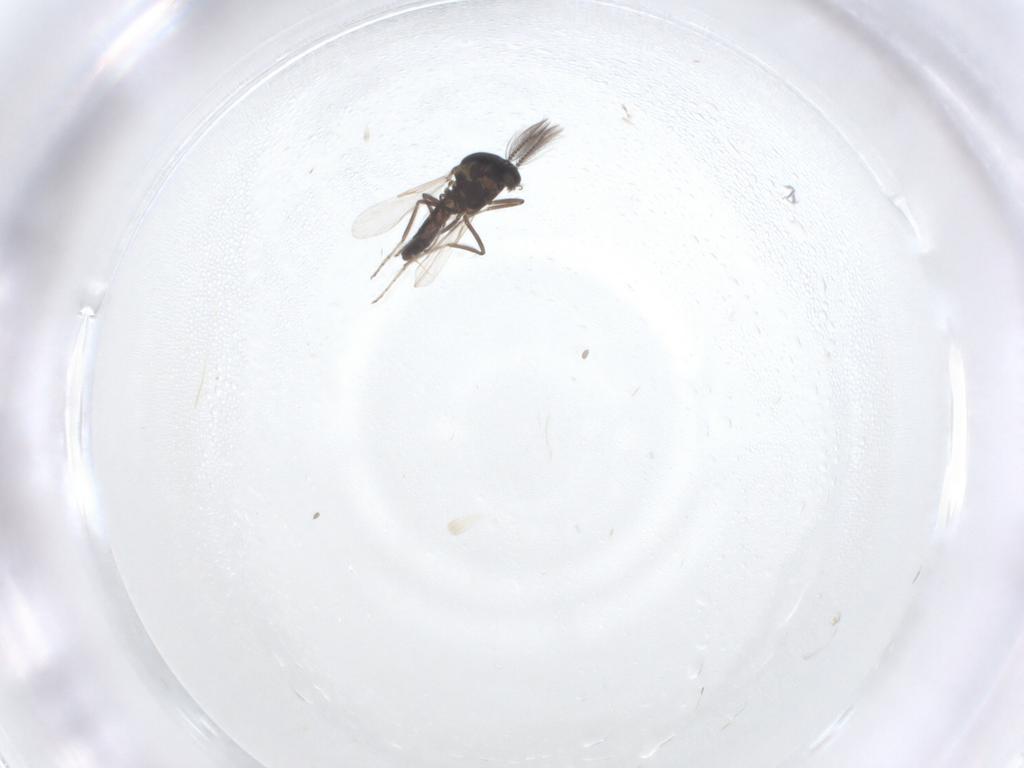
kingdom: Animalia
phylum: Arthropoda
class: Insecta
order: Diptera
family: Ceratopogonidae
